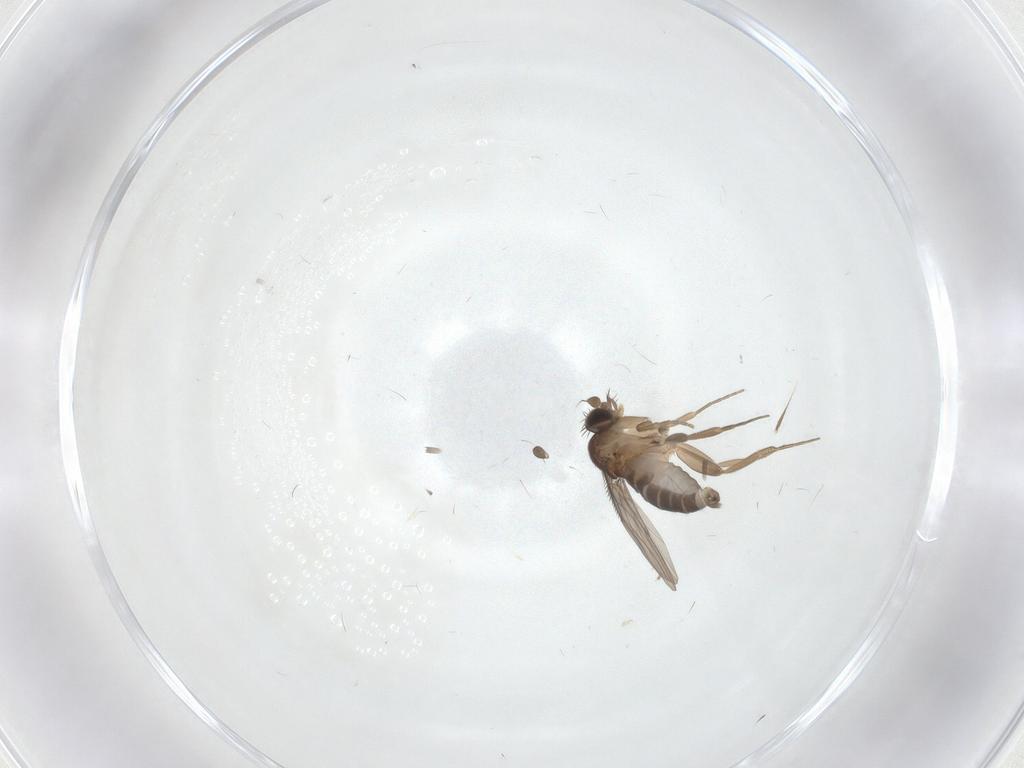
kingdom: Animalia
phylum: Arthropoda
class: Insecta
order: Diptera
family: Phoridae
